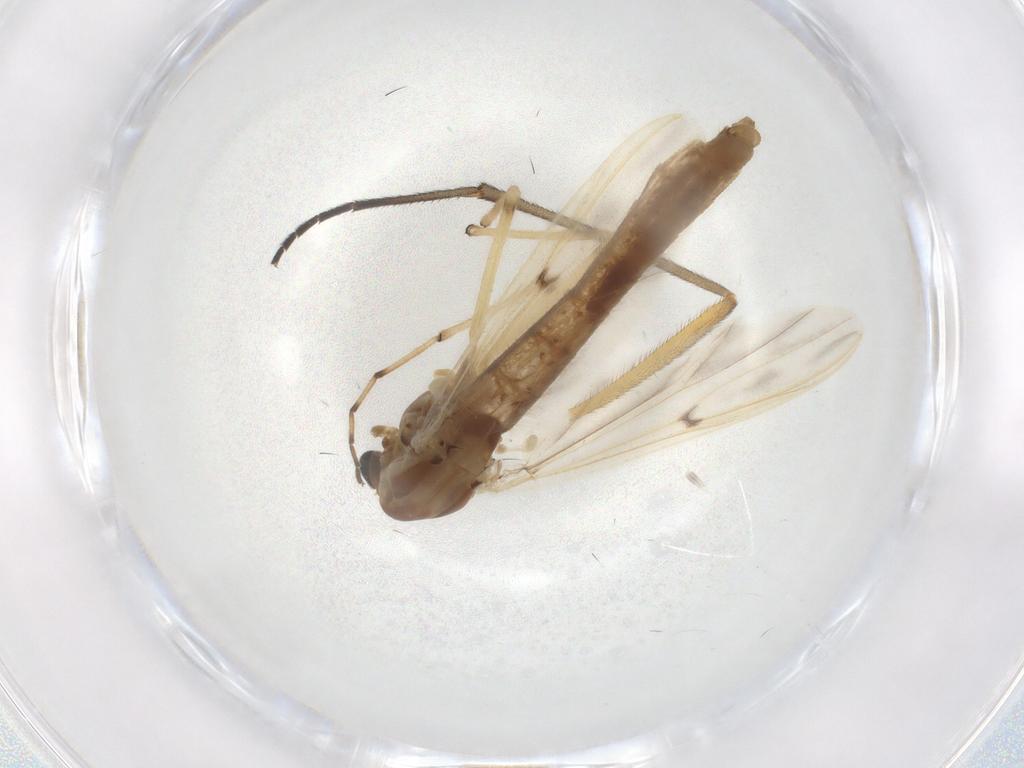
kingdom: Animalia
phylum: Arthropoda
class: Insecta
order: Diptera
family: Chironomidae
